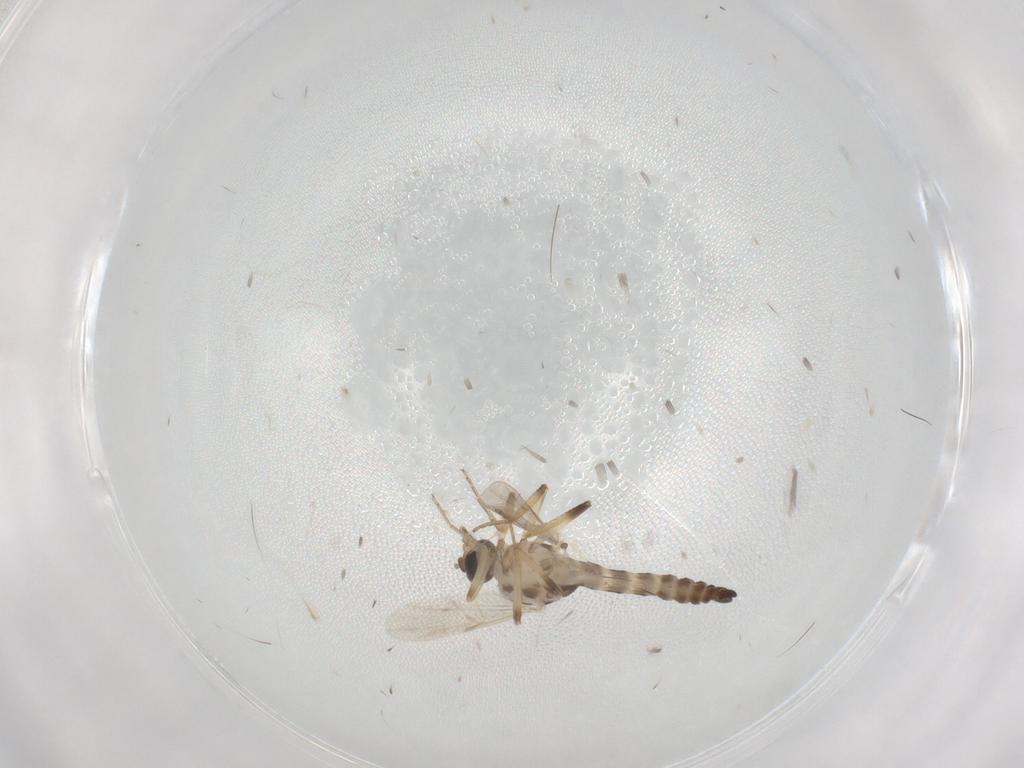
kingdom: Animalia
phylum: Arthropoda
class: Insecta
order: Diptera
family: Ceratopogonidae
